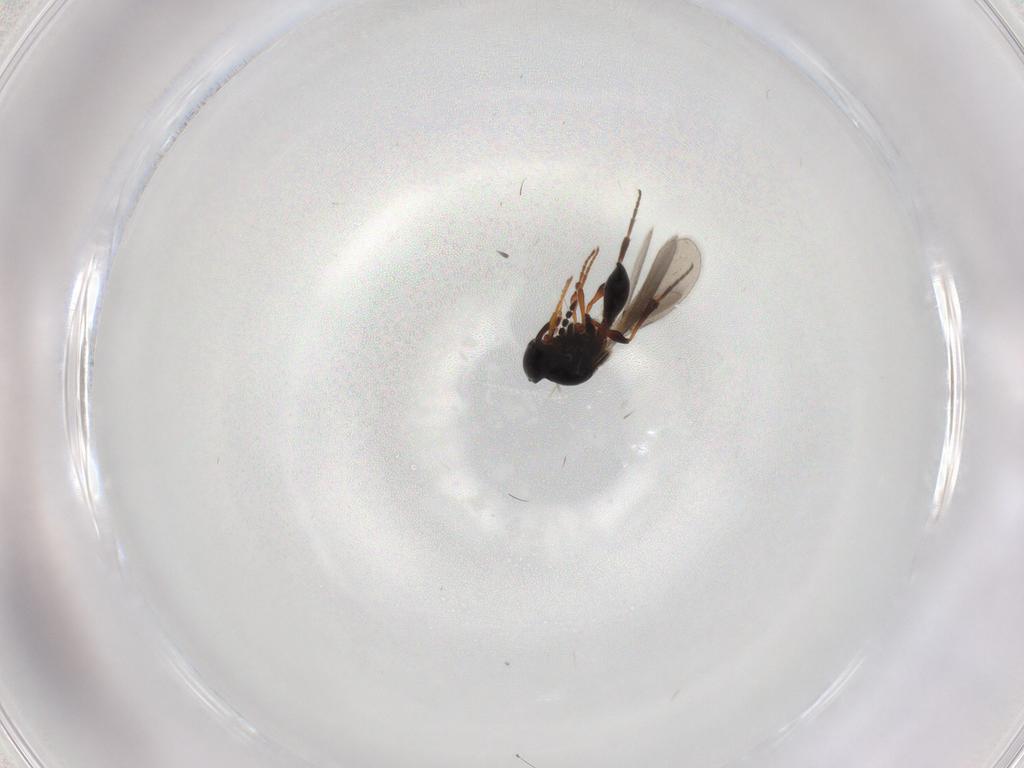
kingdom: Animalia
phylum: Arthropoda
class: Insecta
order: Hymenoptera
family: Platygastridae
